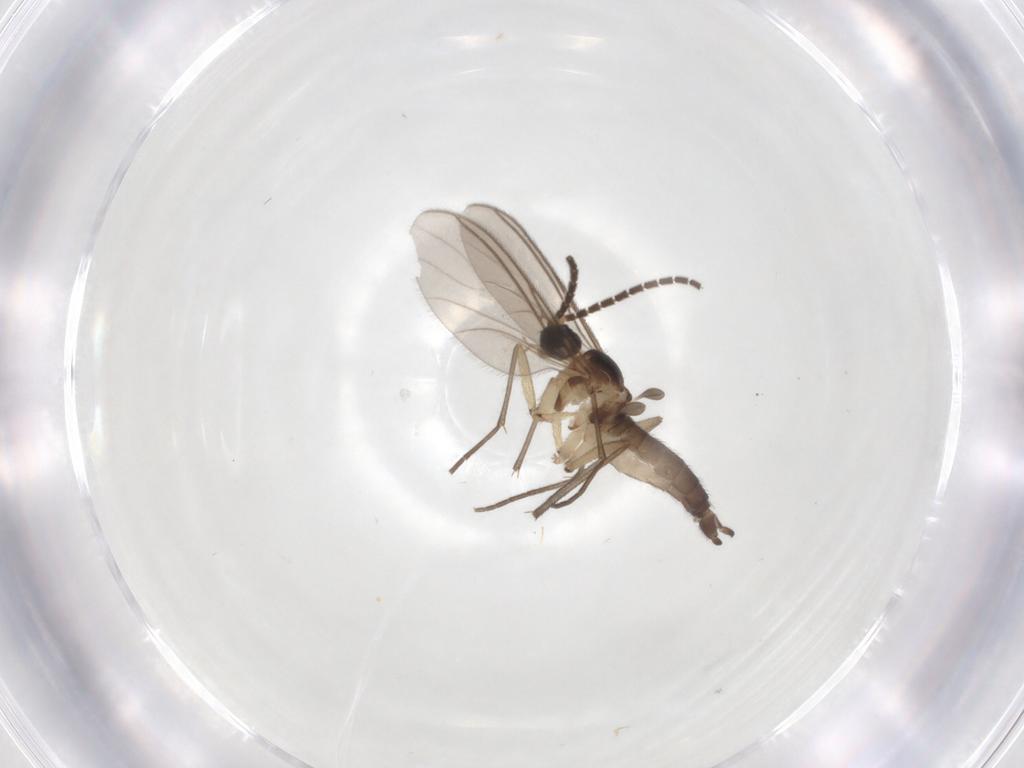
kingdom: Animalia
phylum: Arthropoda
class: Insecta
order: Diptera
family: Sciaridae
